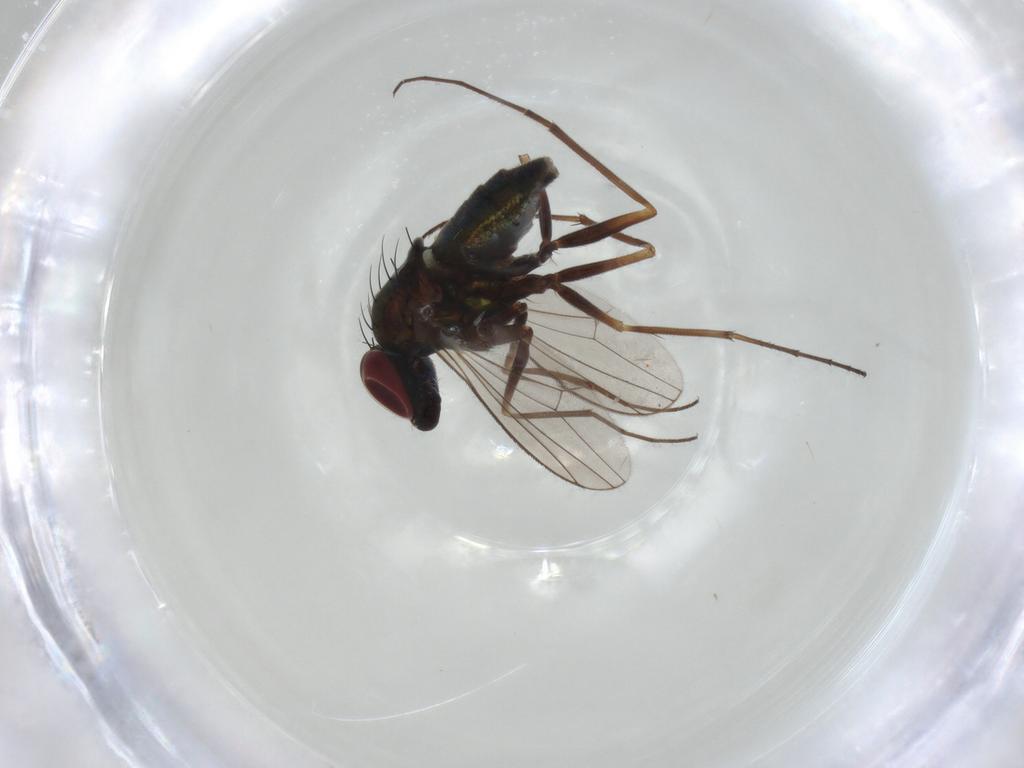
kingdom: Animalia
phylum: Arthropoda
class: Insecta
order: Diptera
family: Dolichopodidae
